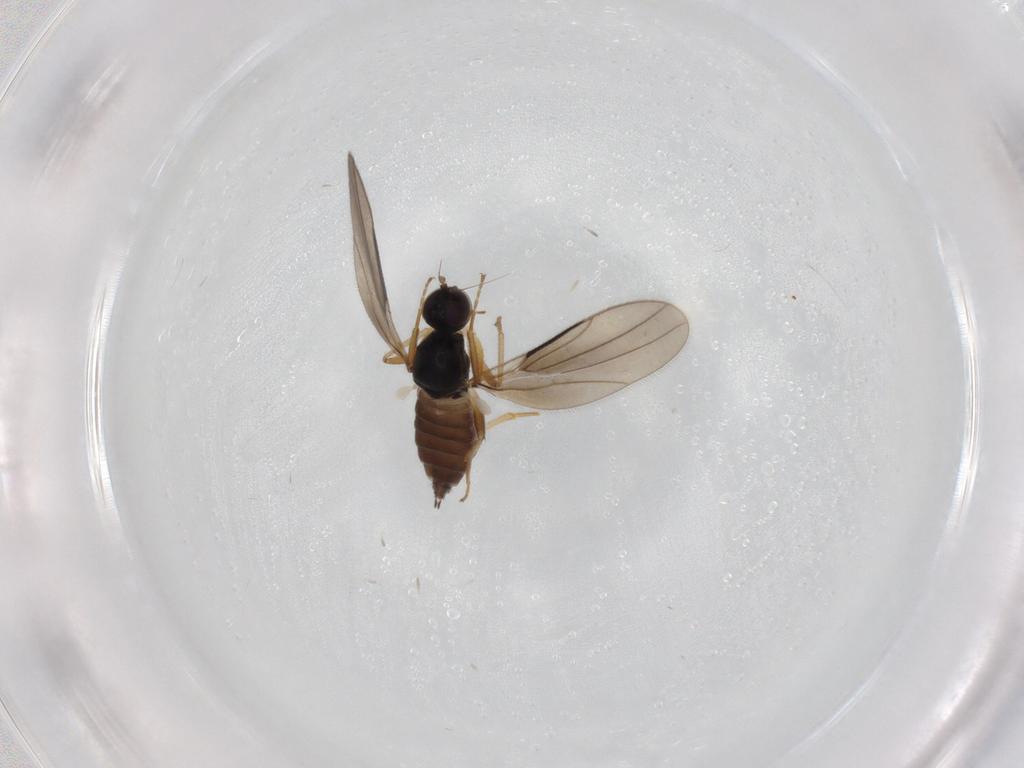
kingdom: Animalia
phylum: Arthropoda
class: Insecta
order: Diptera
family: Hybotidae
